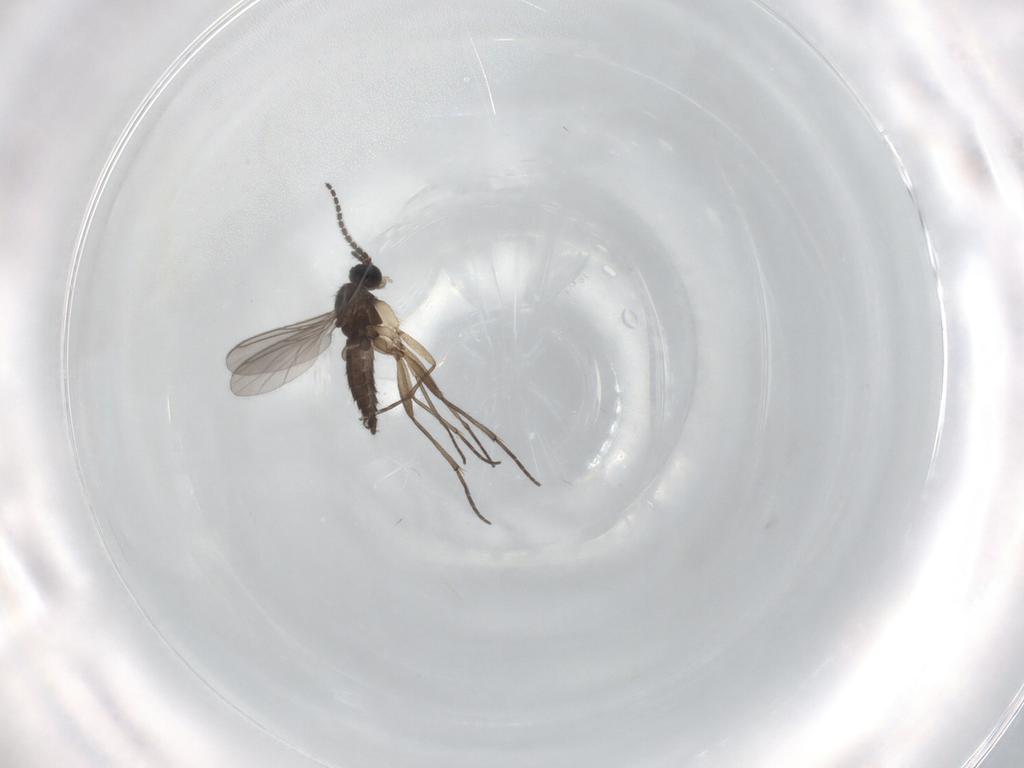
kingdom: Animalia
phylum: Arthropoda
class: Insecta
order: Diptera
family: Sciaridae
